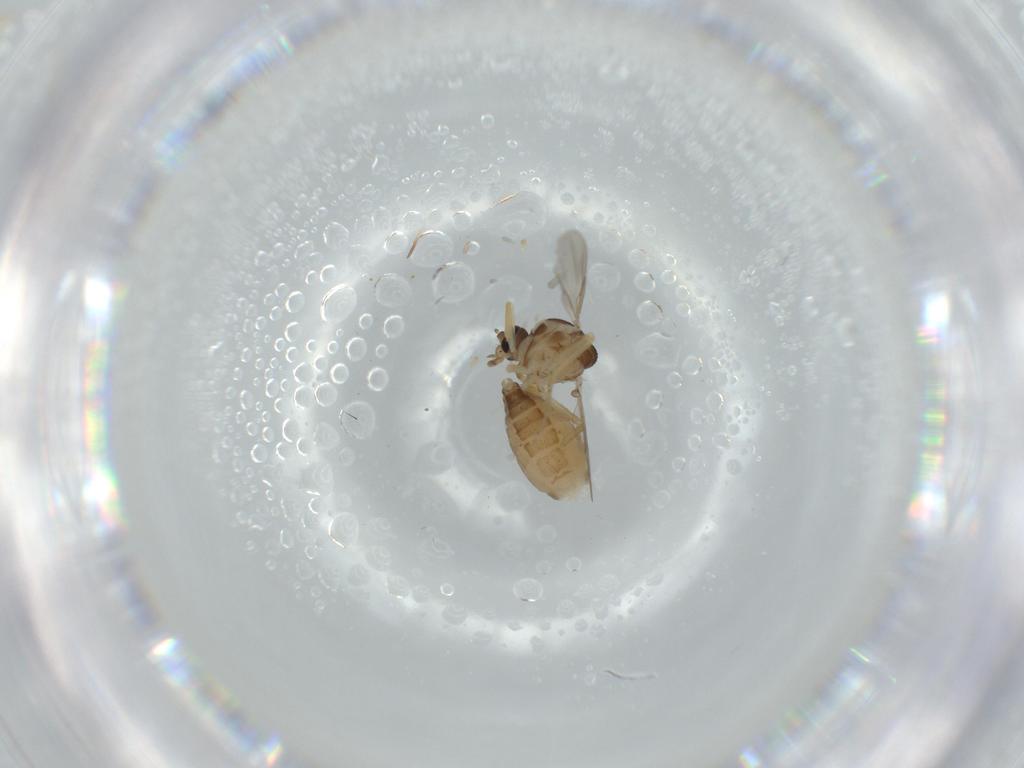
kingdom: Animalia
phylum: Arthropoda
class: Insecta
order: Diptera
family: Ceratopogonidae
